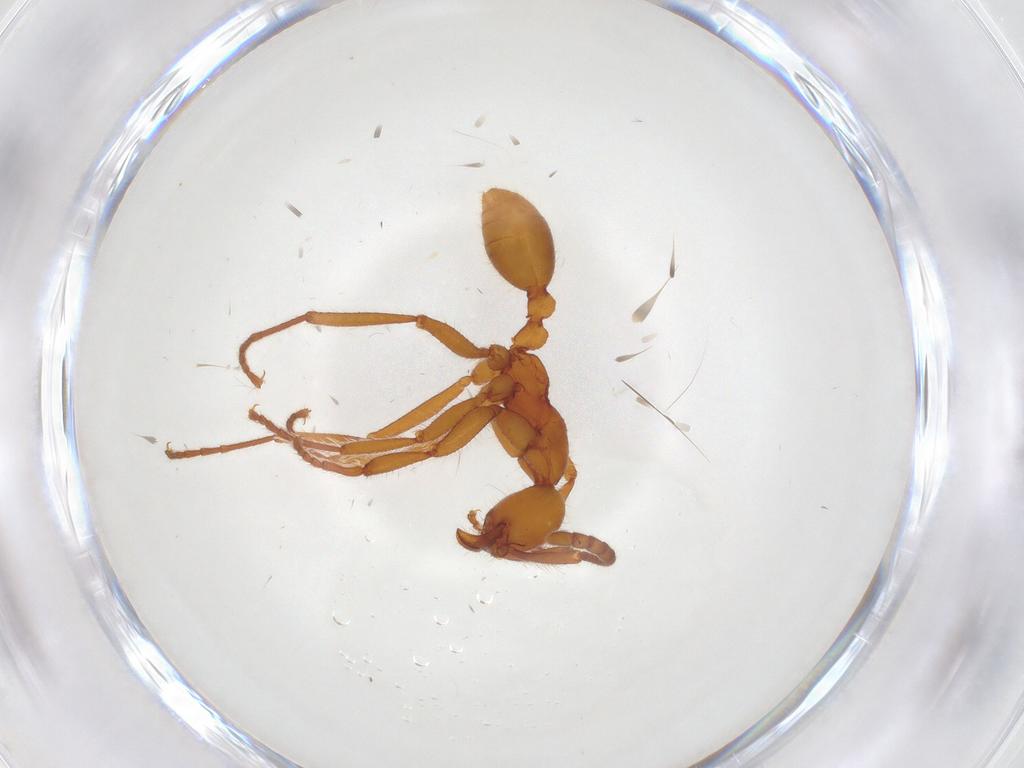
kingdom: Animalia
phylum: Arthropoda
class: Insecta
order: Hymenoptera
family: Formicidae
